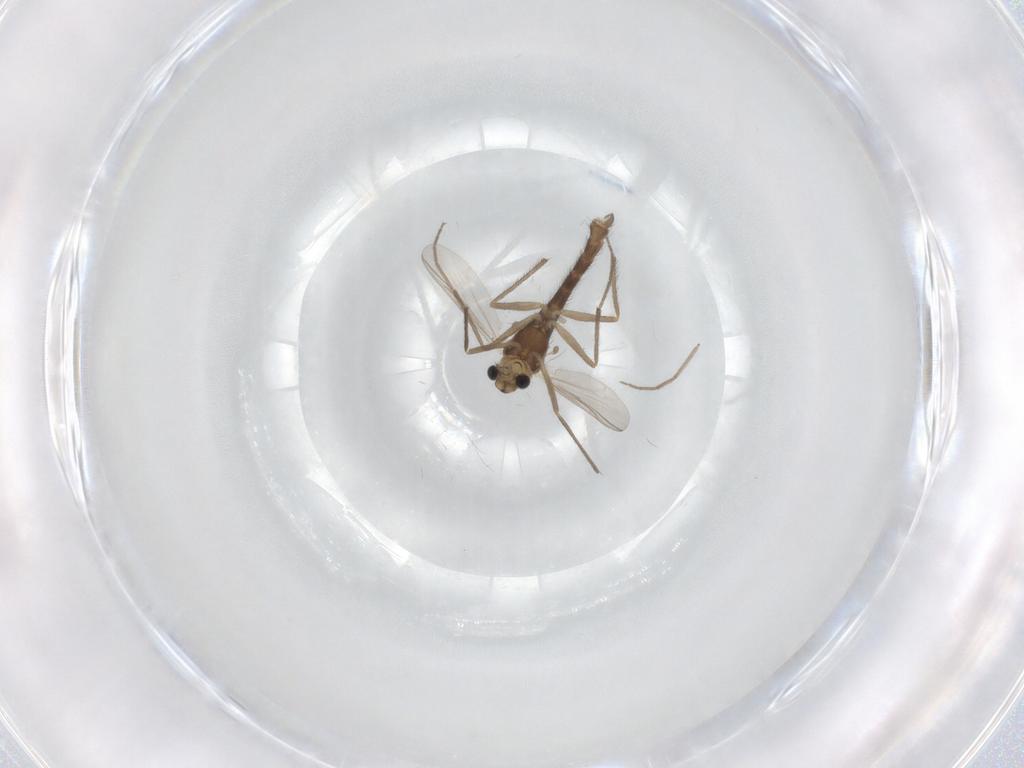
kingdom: Animalia
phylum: Arthropoda
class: Insecta
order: Diptera
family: Chironomidae
